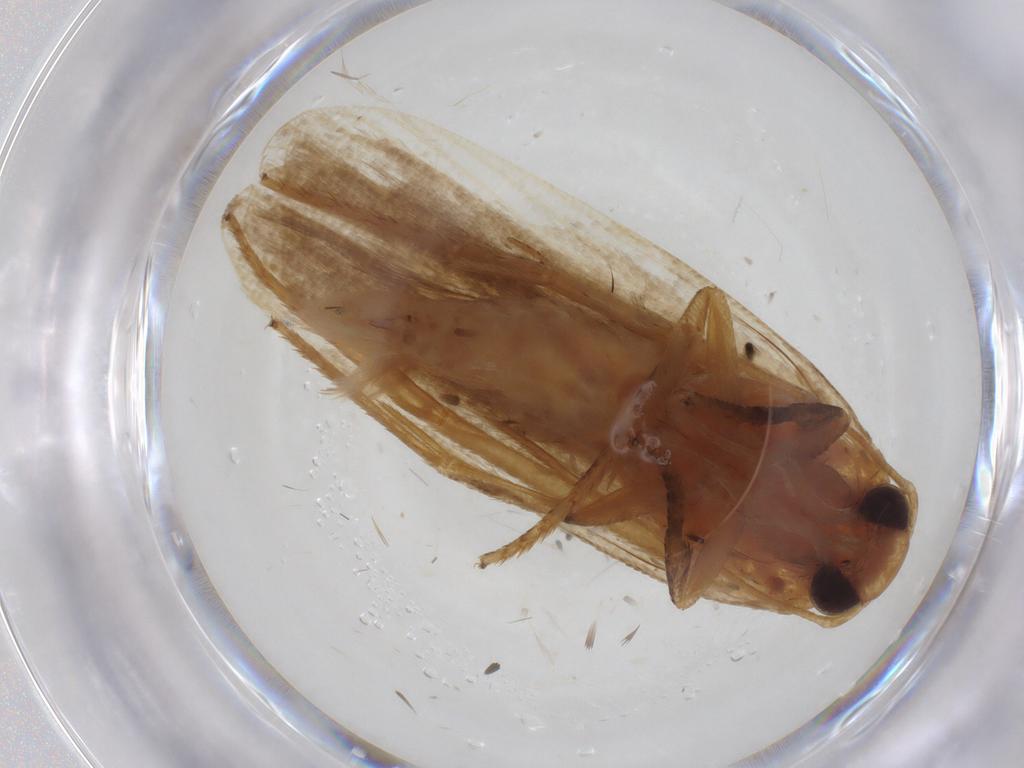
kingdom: Animalia
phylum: Arthropoda
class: Insecta
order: Lepidoptera
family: Gelechiidae
